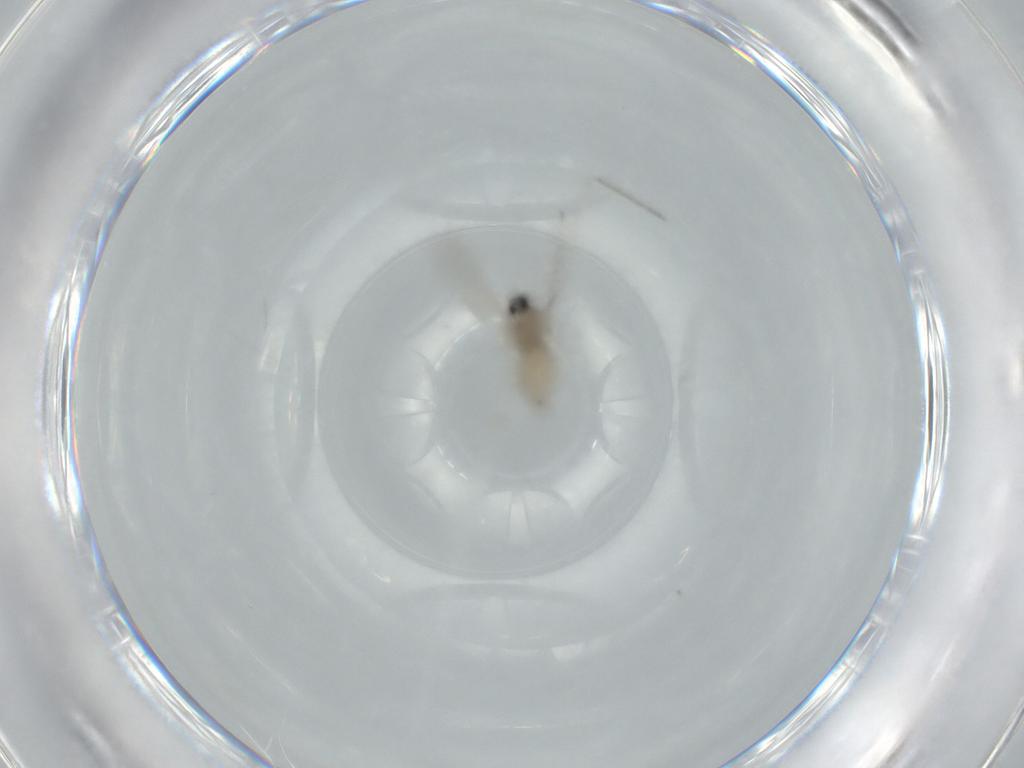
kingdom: Animalia
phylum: Arthropoda
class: Insecta
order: Diptera
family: Cecidomyiidae
